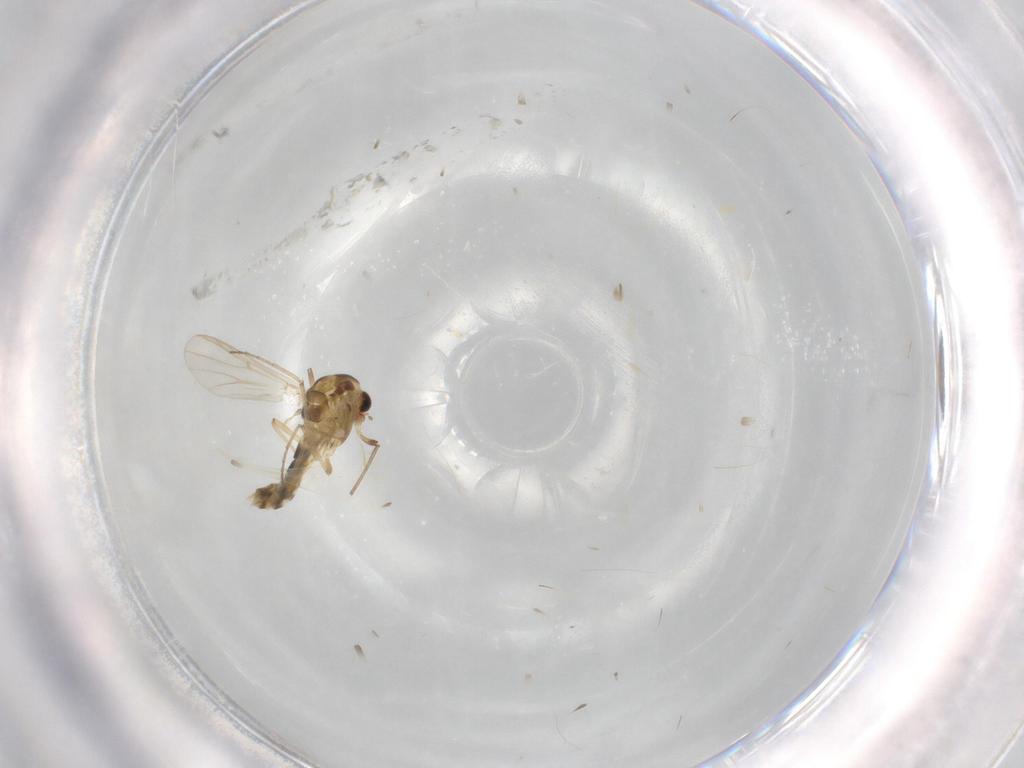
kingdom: Animalia
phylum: Arthropoda
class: Insecta
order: Diptera
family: Chironomidae
